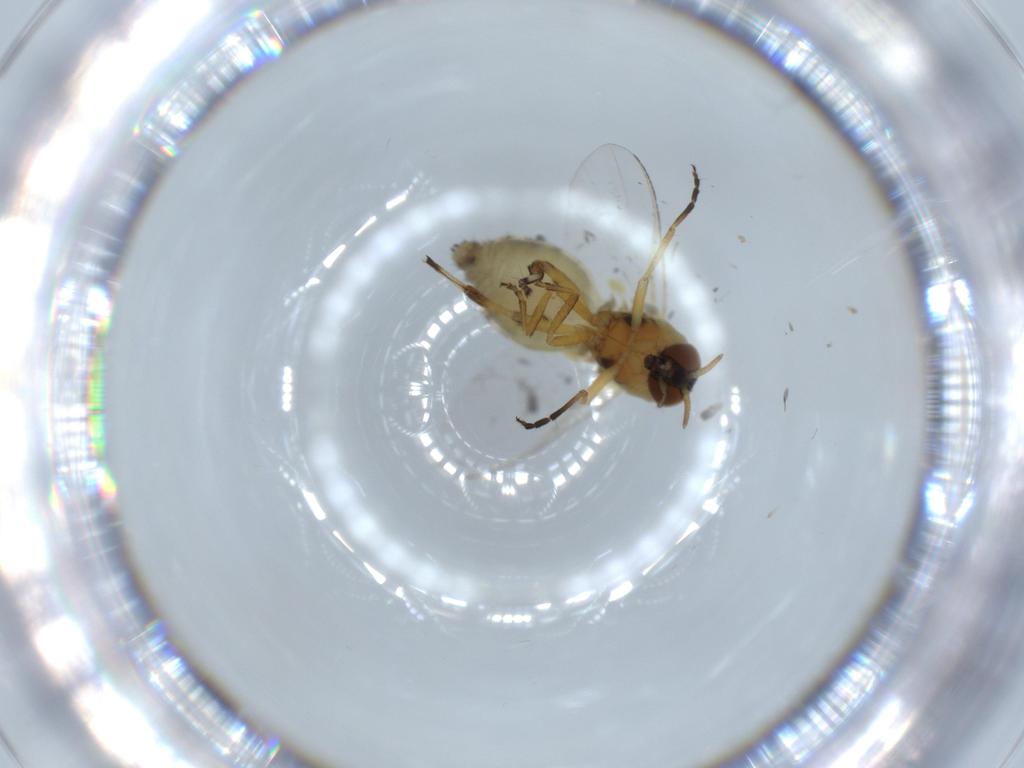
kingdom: Animalia
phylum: Arthropoda
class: Insecta
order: Diptera
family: Simuliidae
